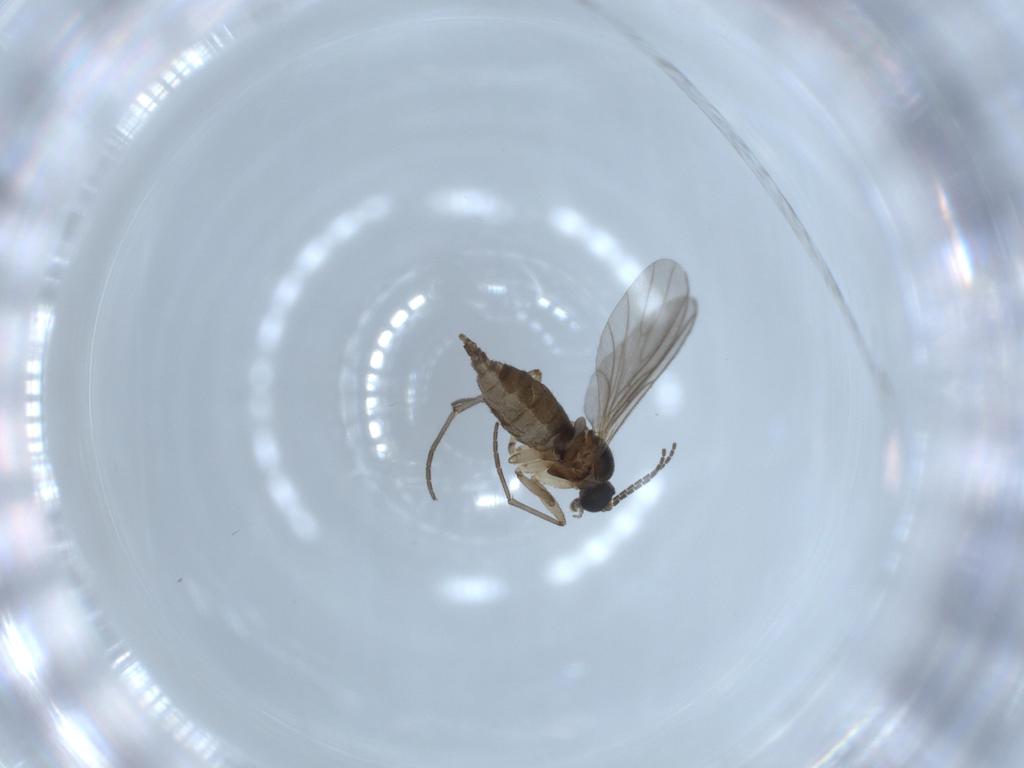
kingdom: Animalia
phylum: Arthropoda
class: Insecta
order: Diptera
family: Sciaridae
